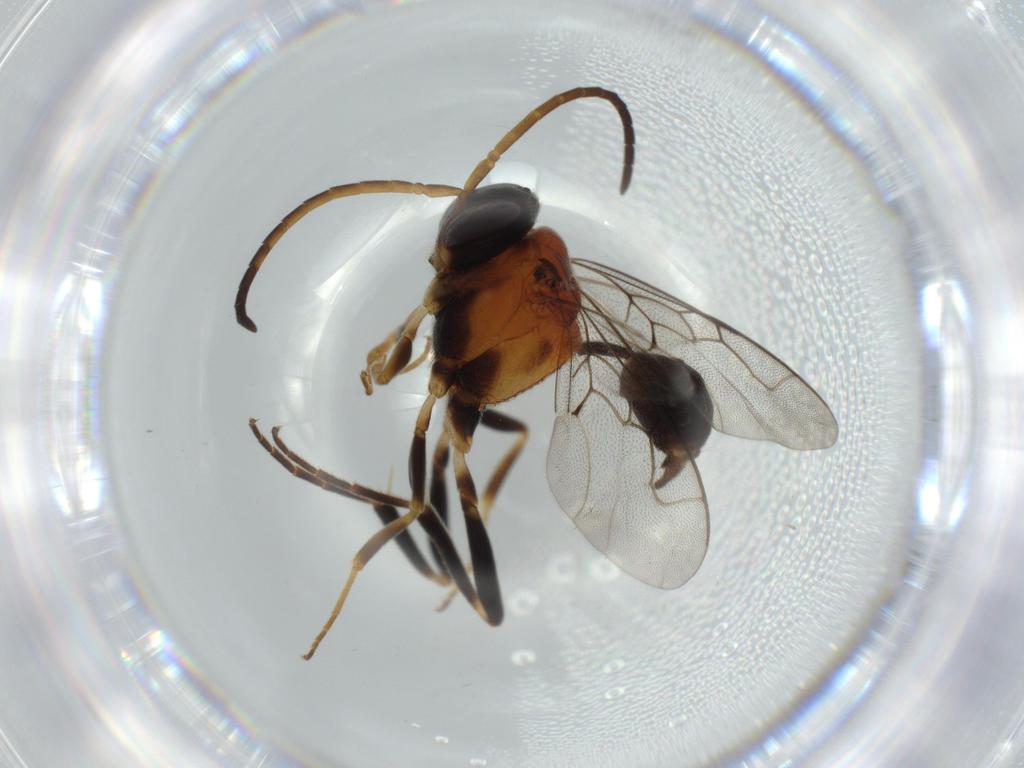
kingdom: Animalia
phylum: Arthropoda
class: Insecta
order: Hymenoptera
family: Evaniidae
